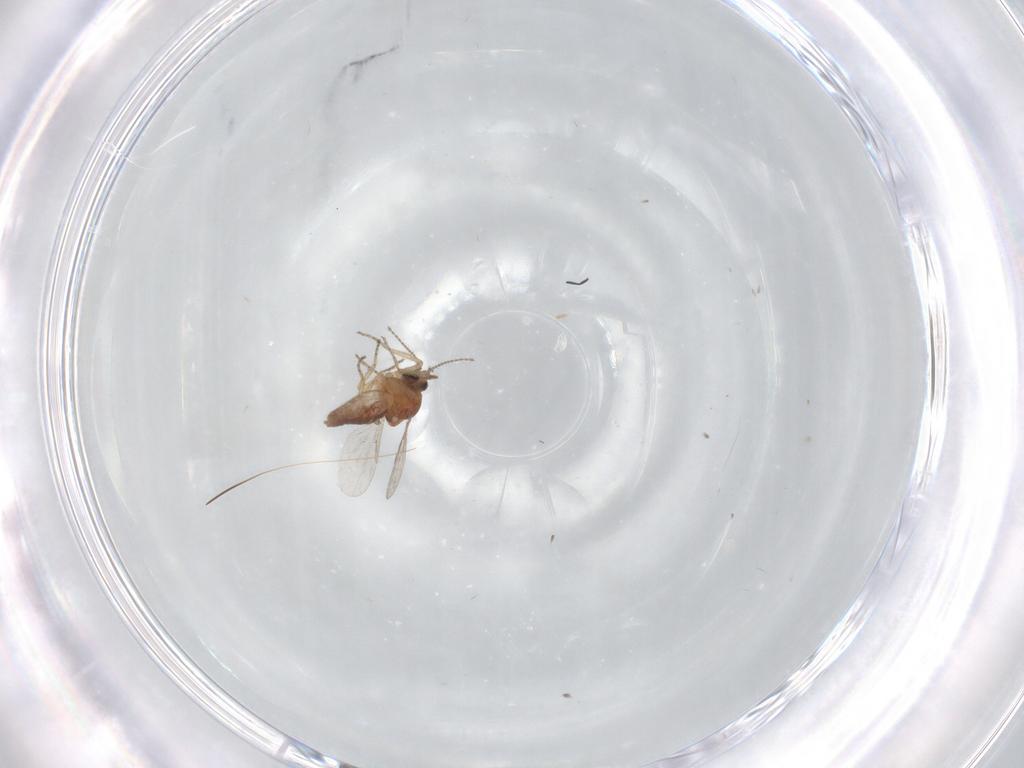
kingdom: Animalia
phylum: Arthropoda
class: Insecta
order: Diptera
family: Ceratopogonidae
